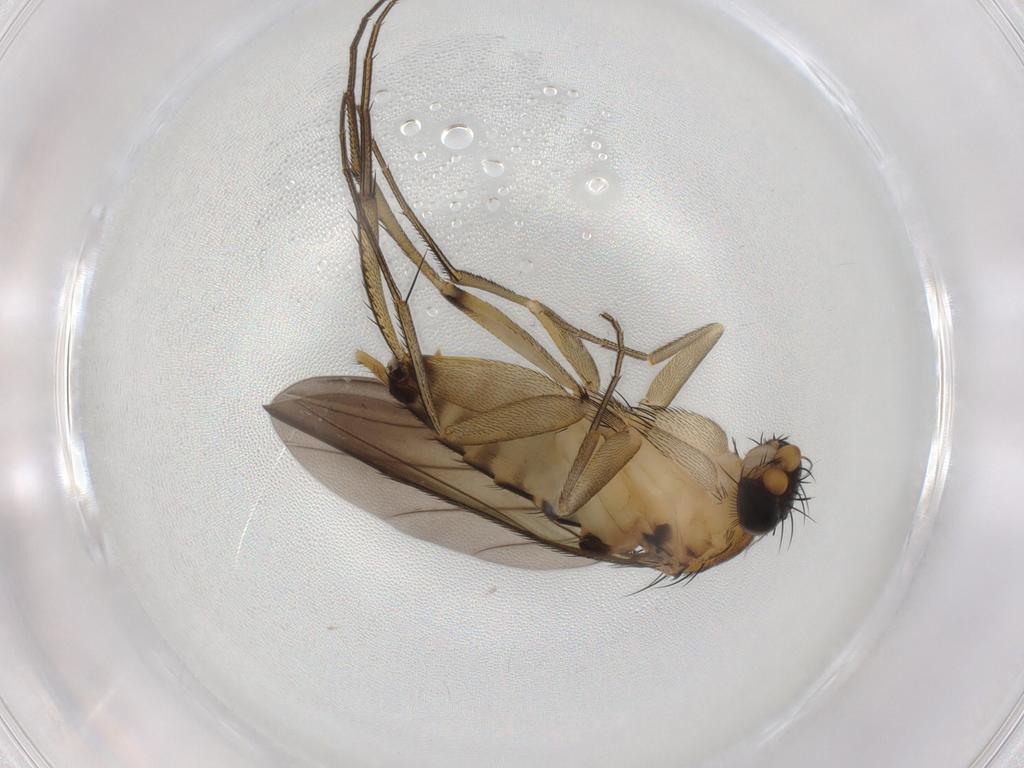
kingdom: Animalia
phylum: Arthropoda
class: Insecta
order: Diptera
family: Phoridae
